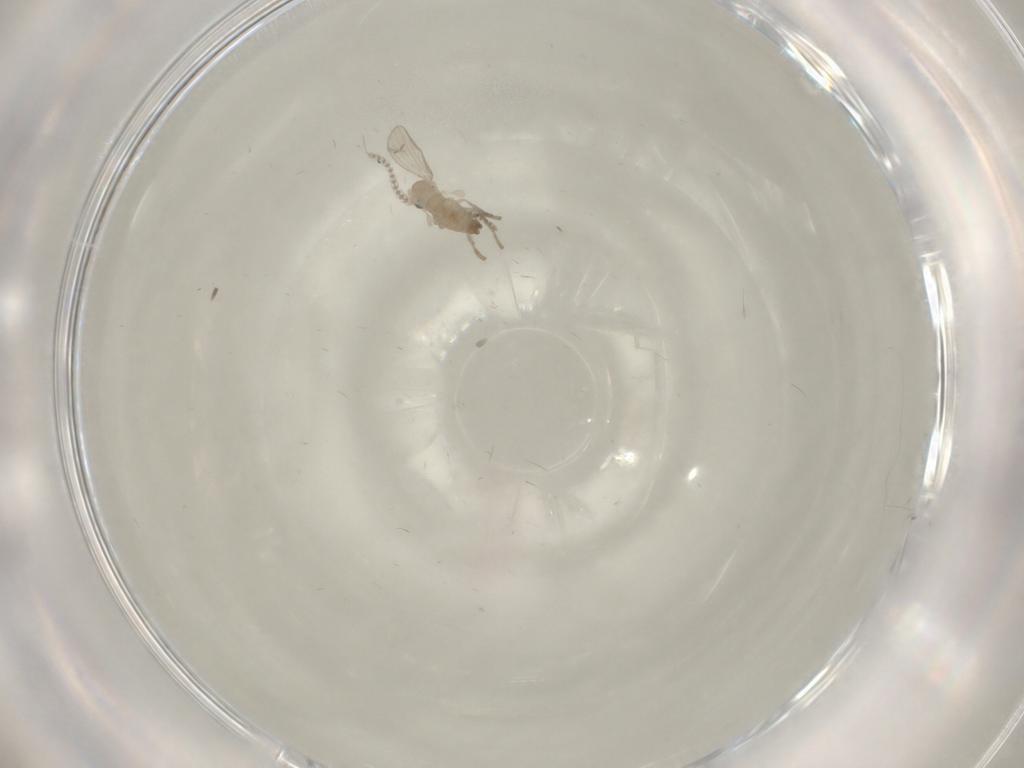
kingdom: Animalia
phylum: Arthropoda
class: Insecta
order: Diptera
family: Psychodidae
